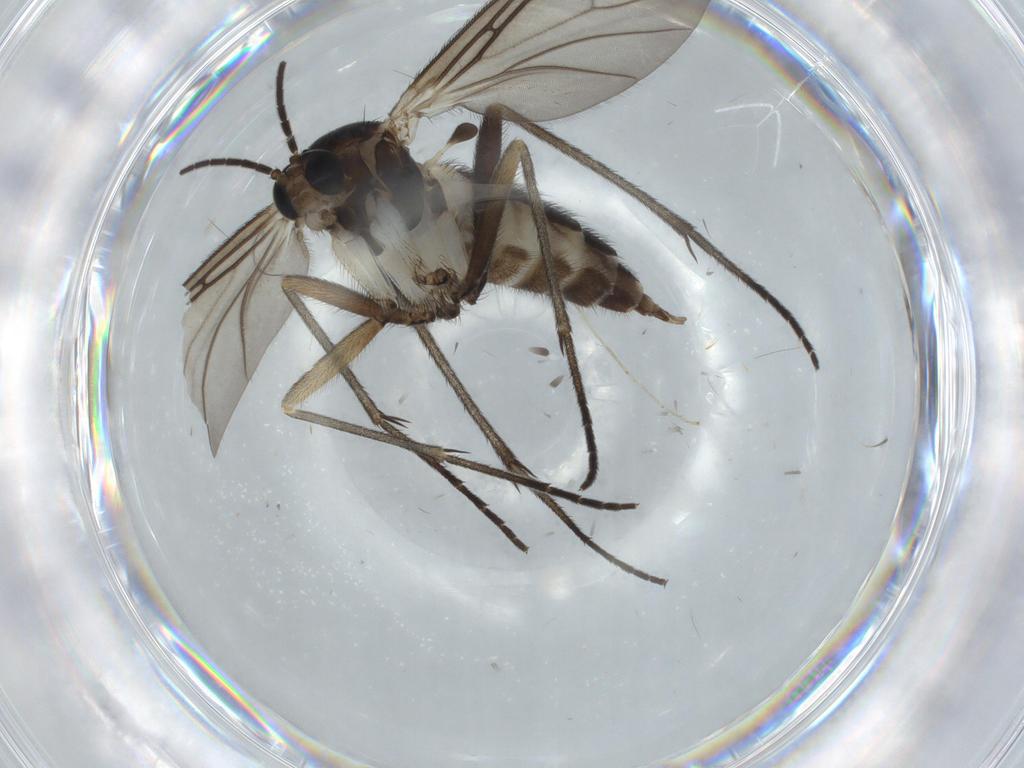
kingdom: Animalia
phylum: Arthropoda
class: Insecta
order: Diptera
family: Sciaridae
